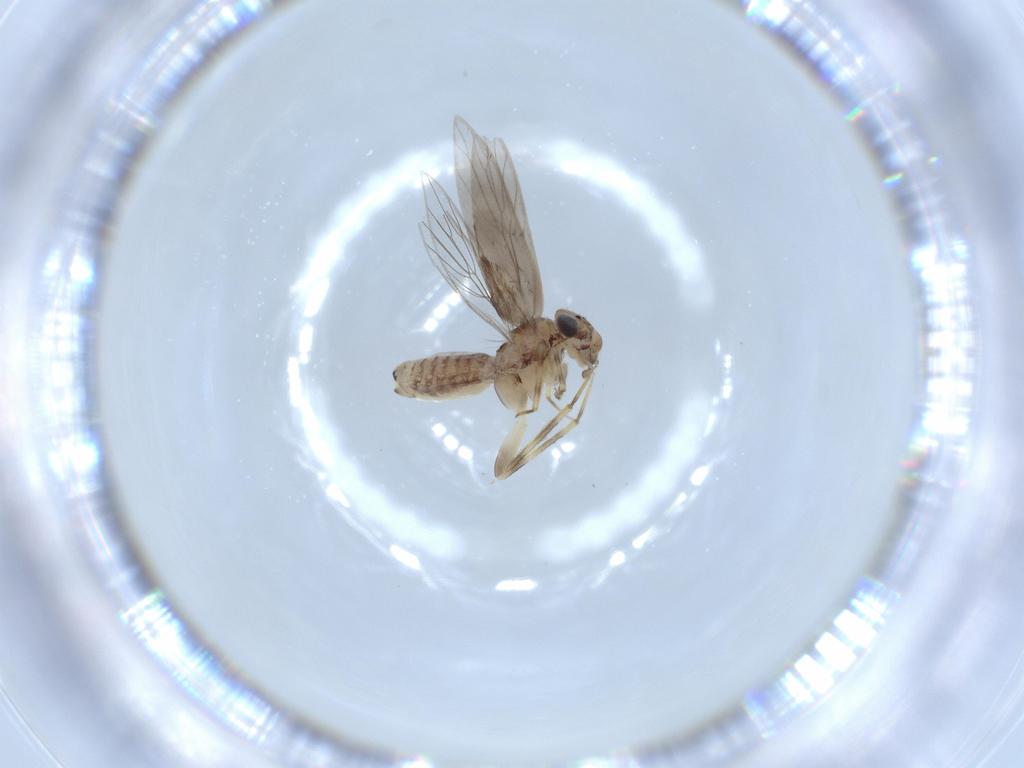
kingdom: Animalia
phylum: Arthropoda
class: Insecta
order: Psocodea
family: Lepidopsocidae
